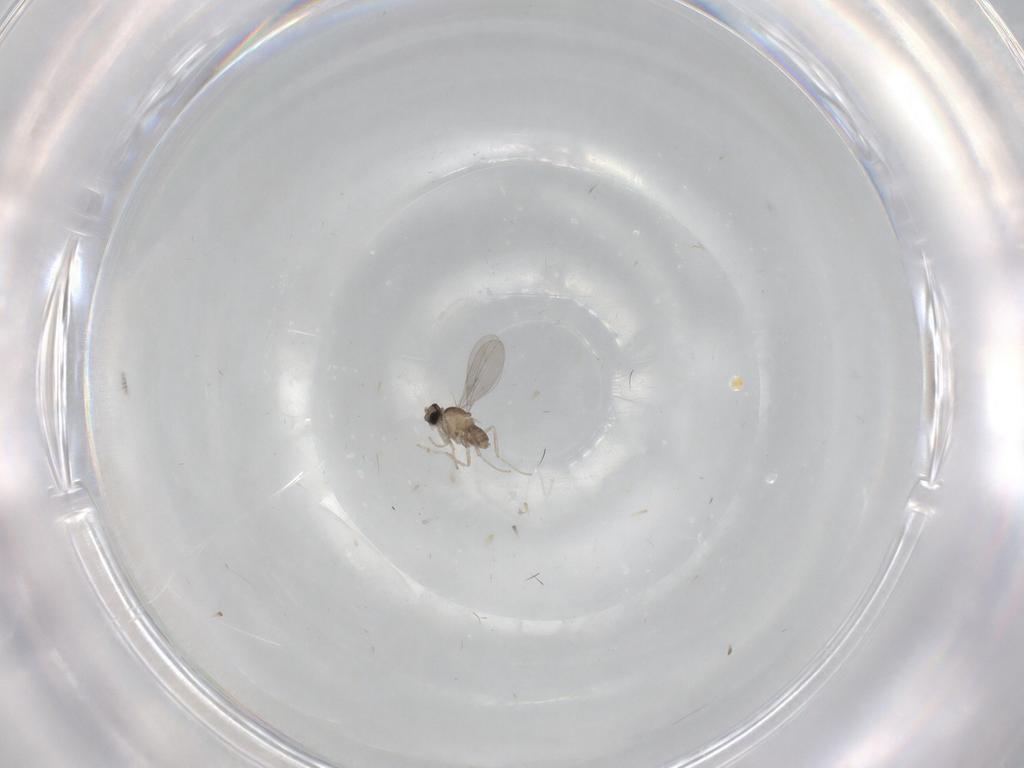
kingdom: Animalia
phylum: Arthropoda
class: Insecta
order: Diptera
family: Cecidomyiidae
